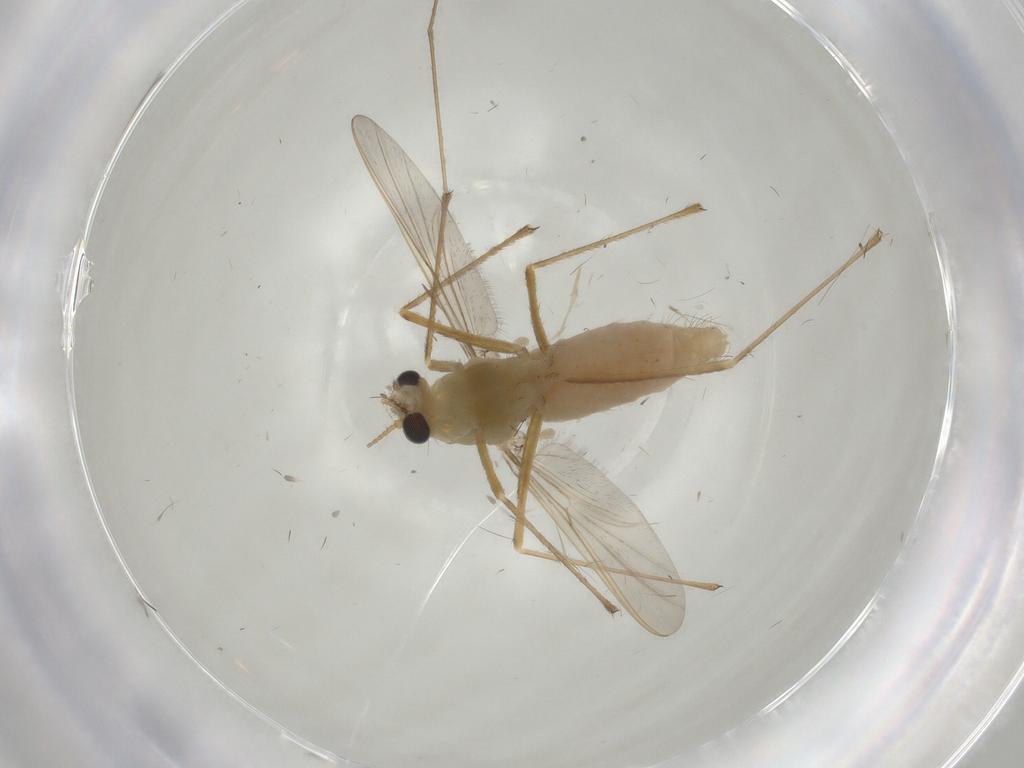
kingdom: Animalia
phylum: Arthropoda
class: Insecta
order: Diptera
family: Chironomidae
